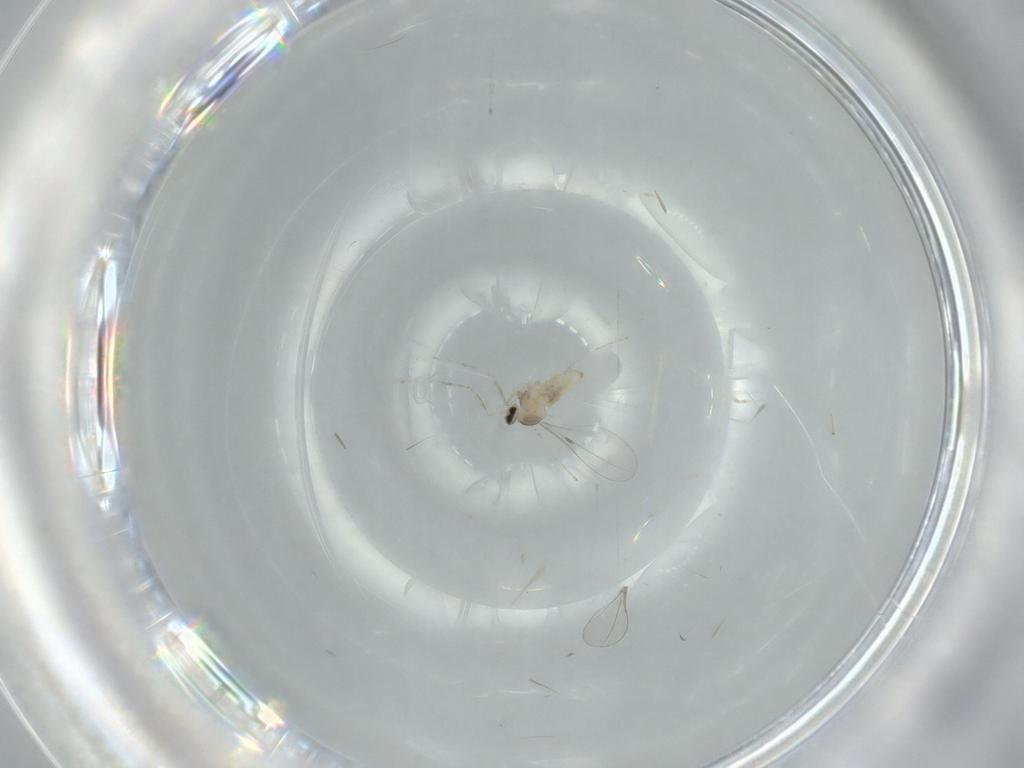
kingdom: Animalia
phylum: Arthropoda
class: Insecta
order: Diptera
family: Cecidomyiidae
